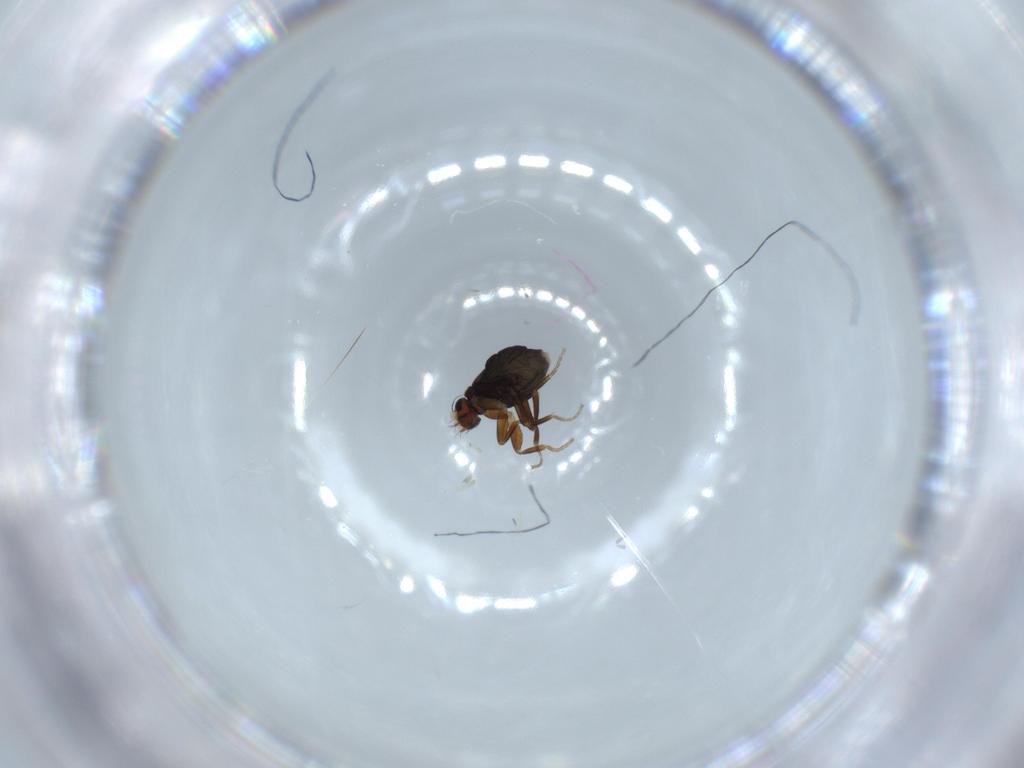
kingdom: Animalia
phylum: Arthropoda
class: Insecta
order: Diptera
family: Phoridae
